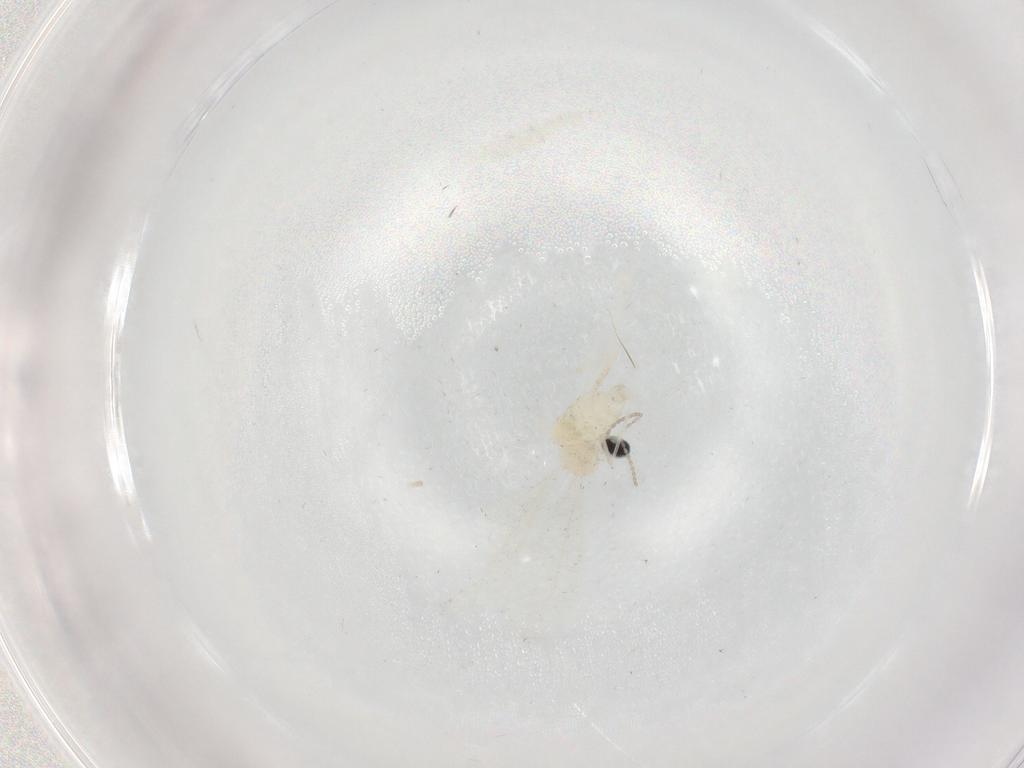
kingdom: Animalia
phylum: Arthropoda
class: Insecta
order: Diptera
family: Cecidomyiidae
